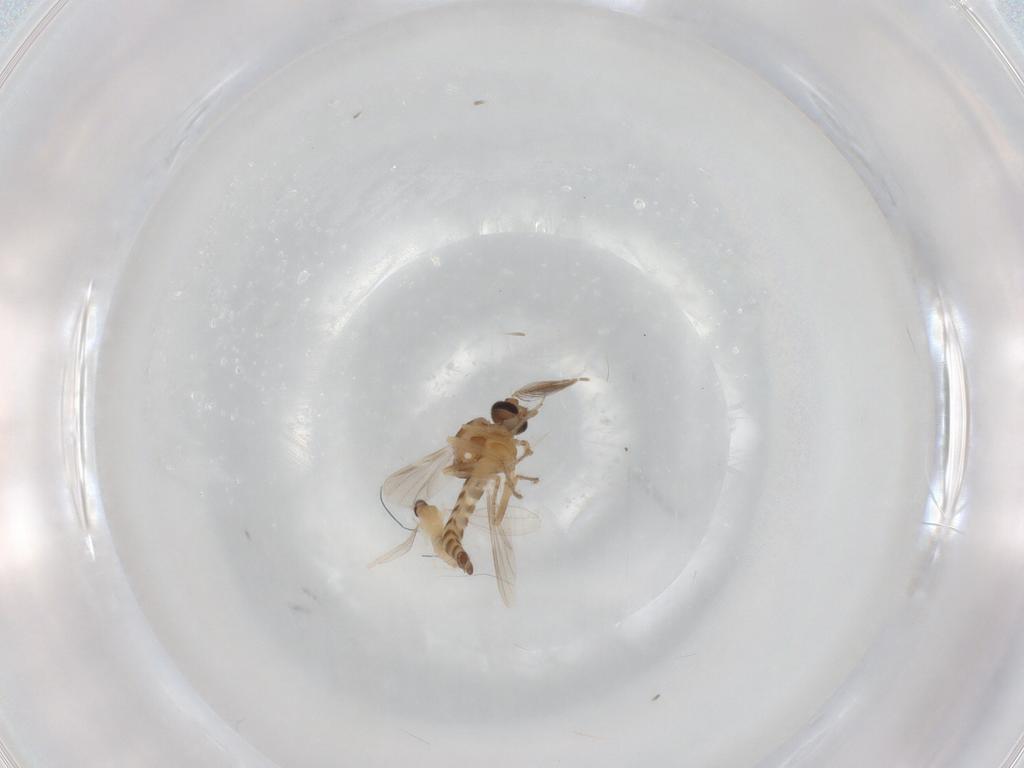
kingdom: Animalia
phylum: Arthropoda
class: Insecta
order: Diptera
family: Ceratopogonidae
